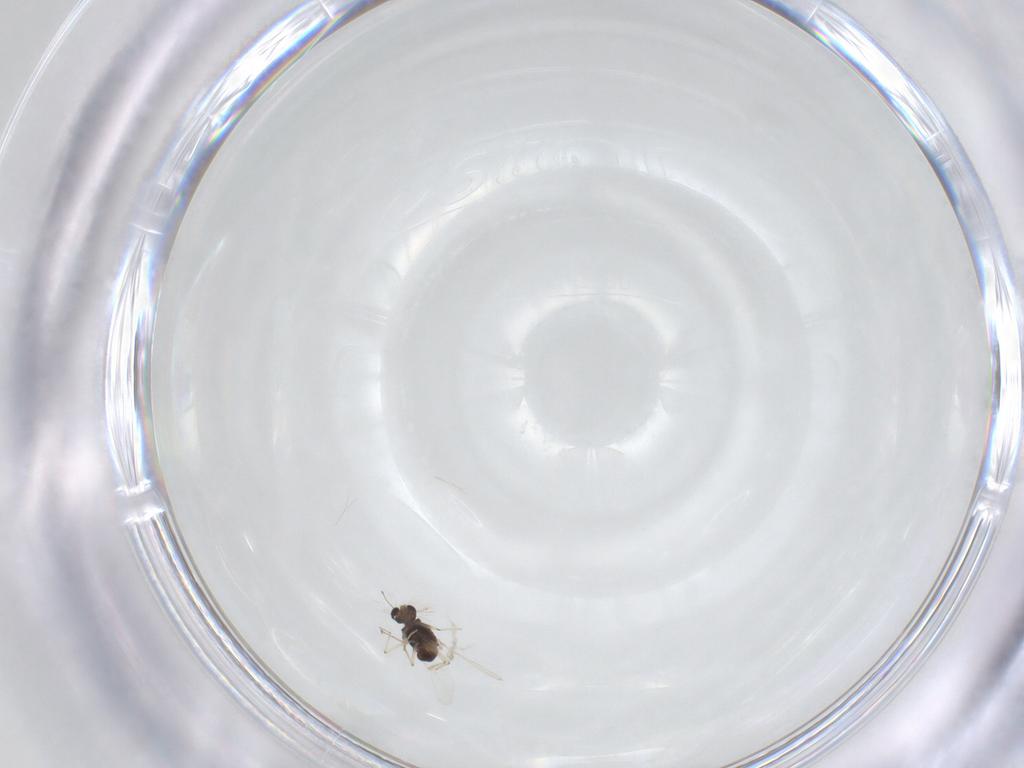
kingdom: Animalia
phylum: Arthropoda
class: Insecta
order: Diptera
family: Chironomidae
